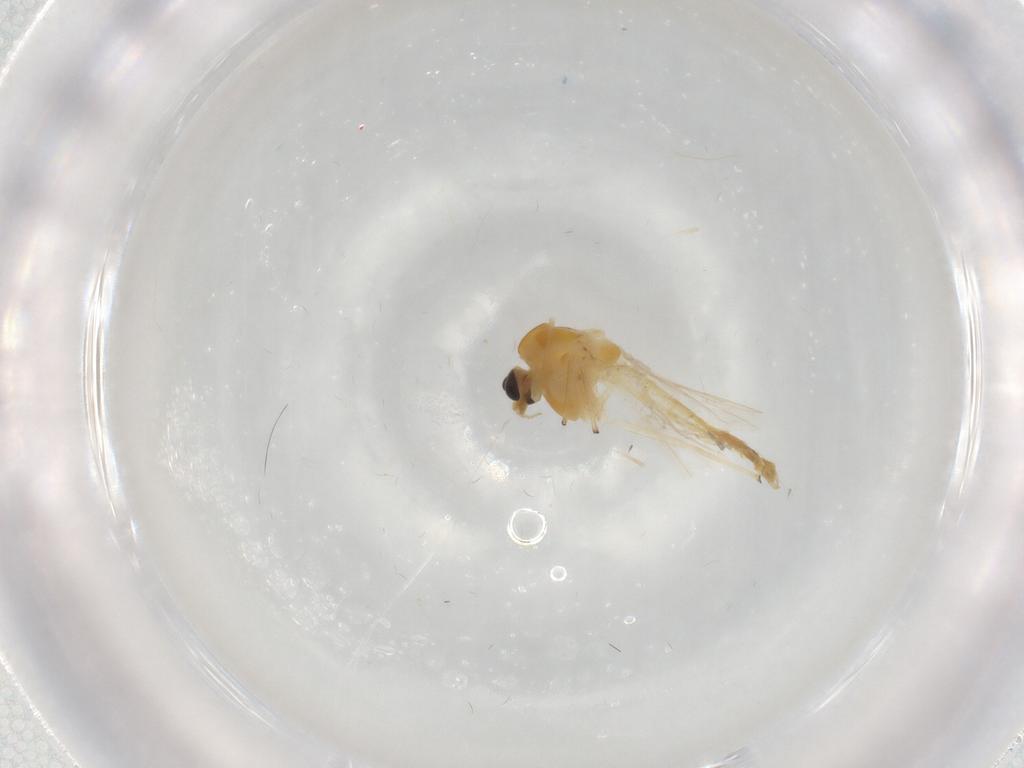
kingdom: Animalia
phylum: Arthropoda
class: Insecta
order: Diptera
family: Chironomidae
